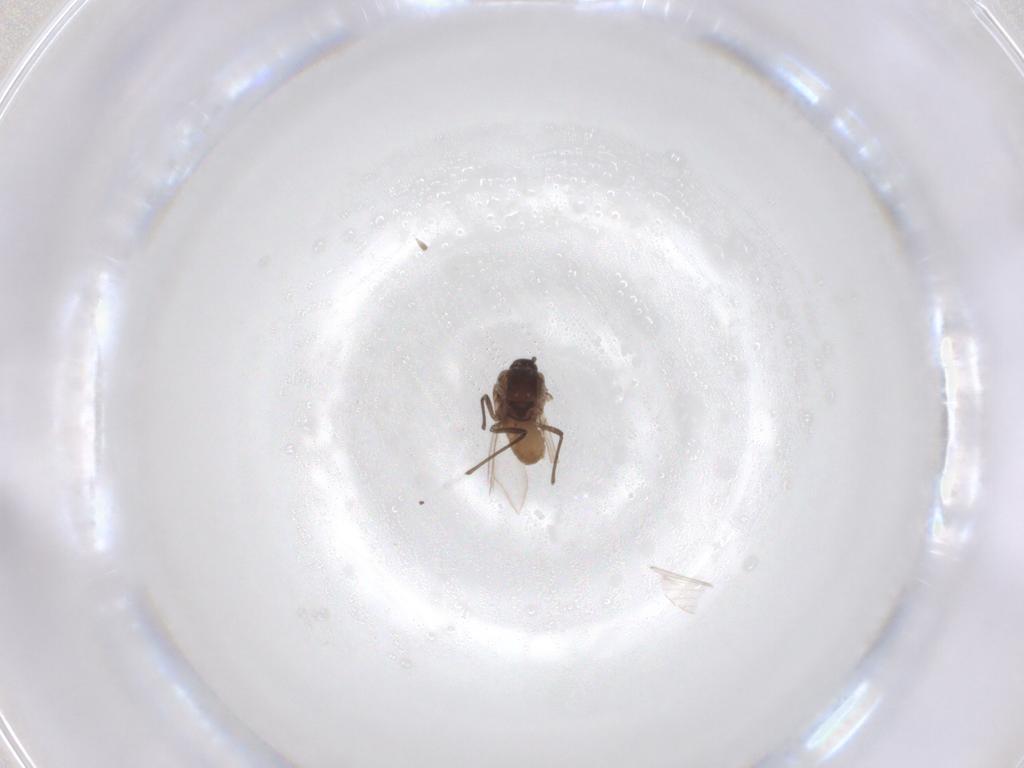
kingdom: Animalia
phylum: Arthropoda
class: Insecta
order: Hemiptera
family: Aphididae
